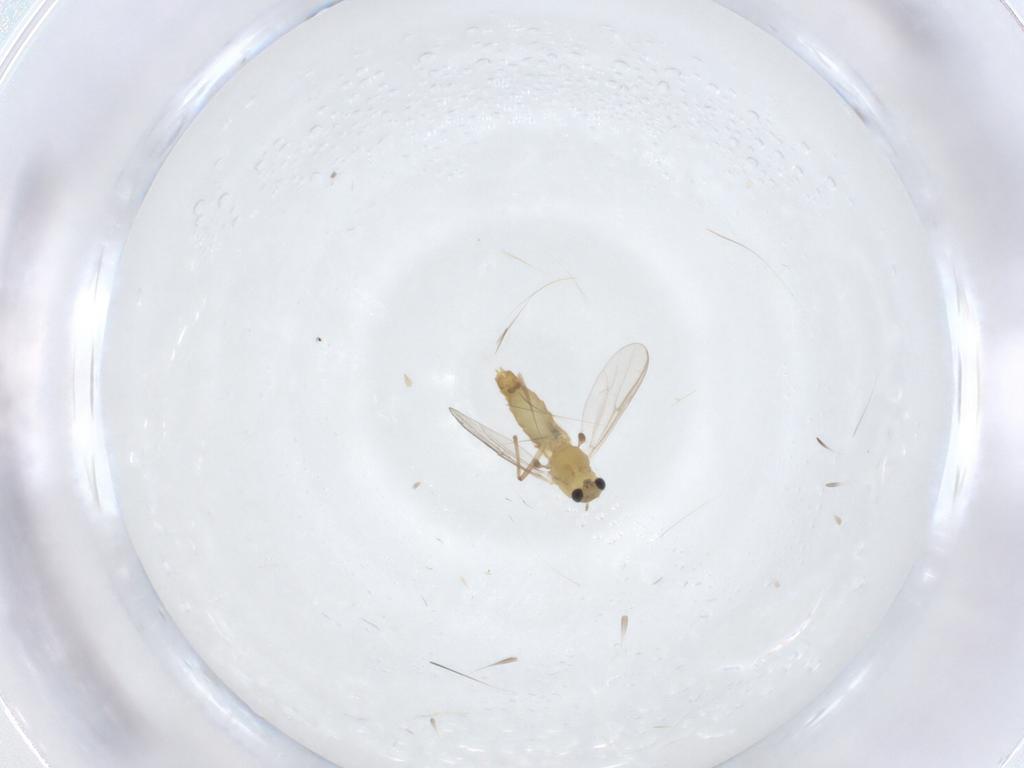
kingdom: Animalia
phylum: Arthropoda
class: Insecta
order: Diptera
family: Chironomidae
